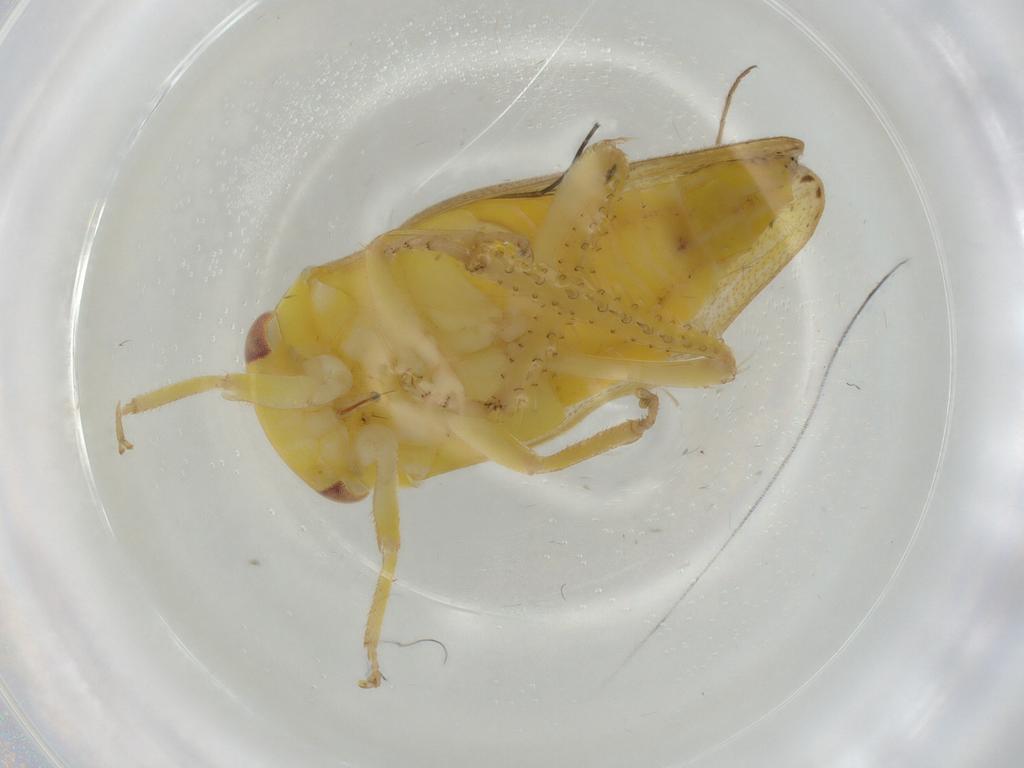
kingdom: Animalia
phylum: Arthropoda
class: Insecta
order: Hemiptera
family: Cicadellidae
